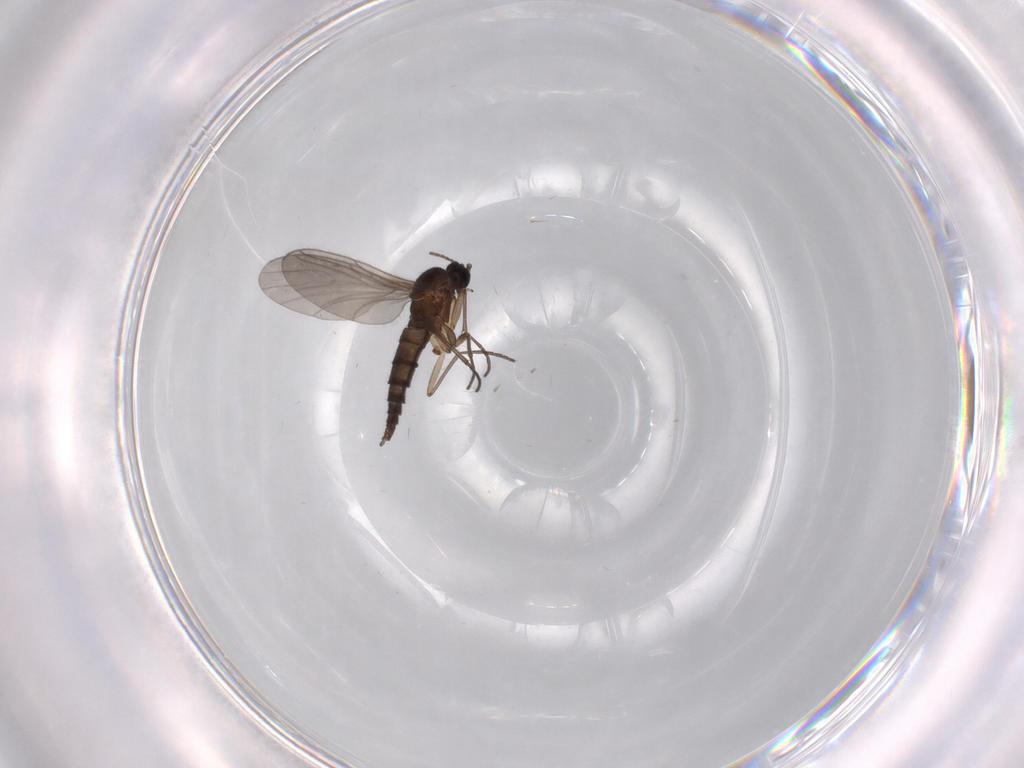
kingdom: Animalia
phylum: Arthropoda
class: Insecta
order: Diptera
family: Sciaridae
